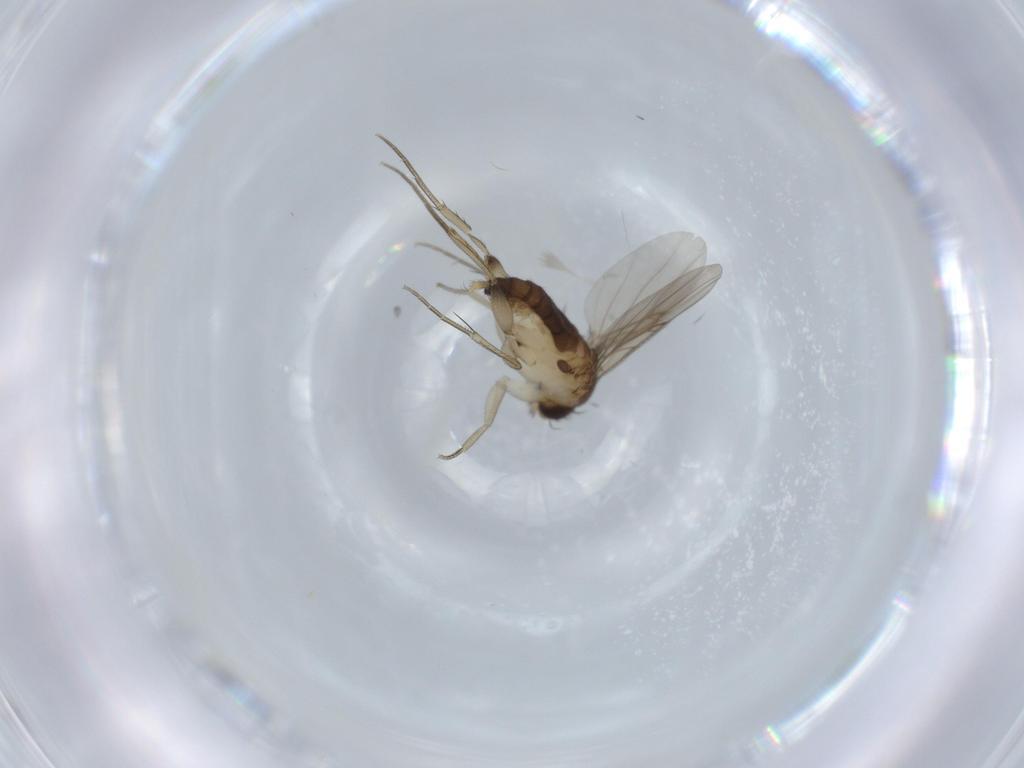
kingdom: Animalia
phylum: Arthropoda
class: Insecta
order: Diptera
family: Phoridae
